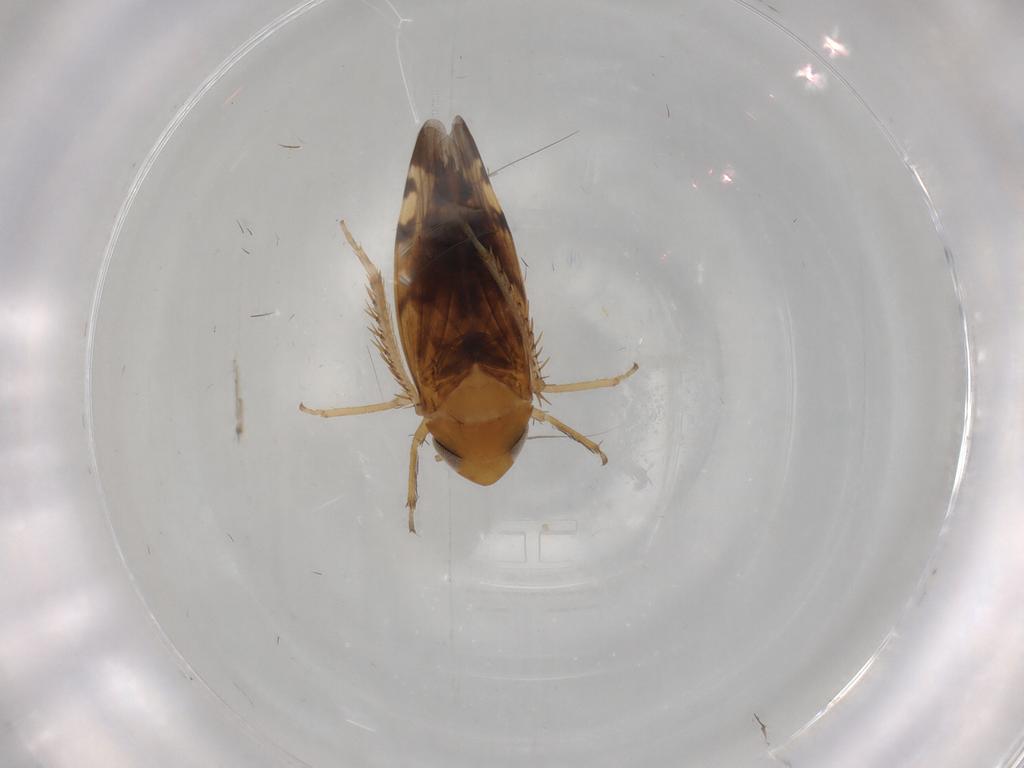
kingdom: Animalia
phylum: Arthropoda
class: Insecta
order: Hemiptera
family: Cicadellidae
